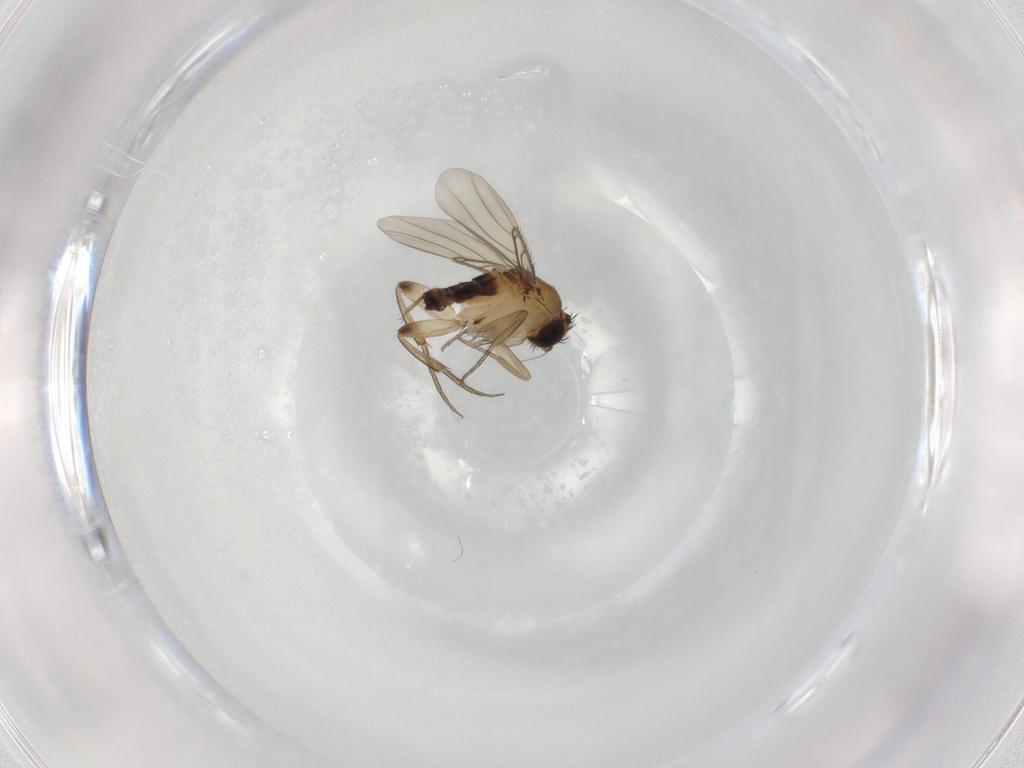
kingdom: Animalia
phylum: Arthropoda
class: Insecta
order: Diptera
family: Phoridae
